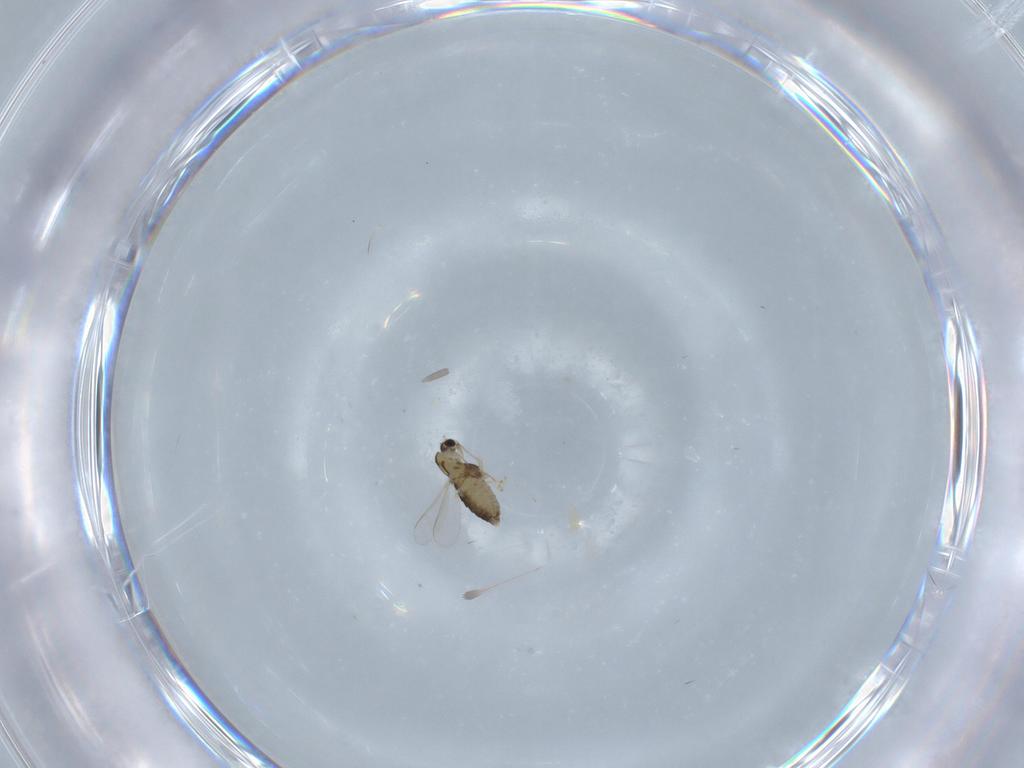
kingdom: Animalia
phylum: Arthropoda
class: Insecta
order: Diptera
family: Chironomidae
